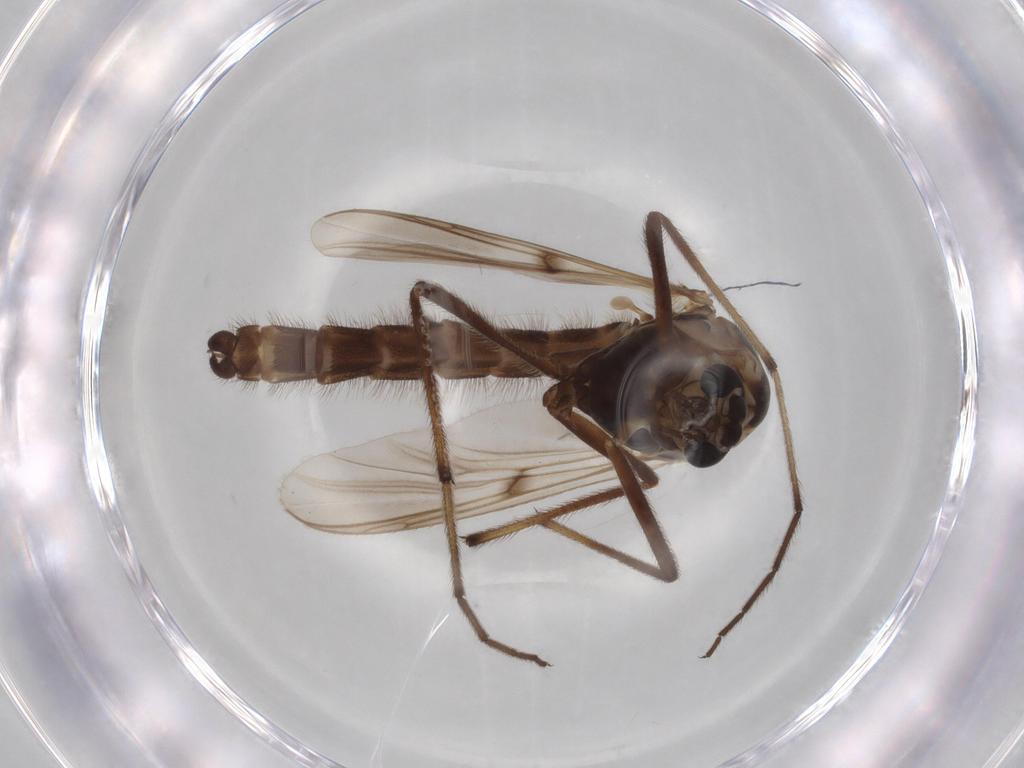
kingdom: Animalia
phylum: Arthropoda
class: Insecta
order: Diptera
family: Chironomidae
